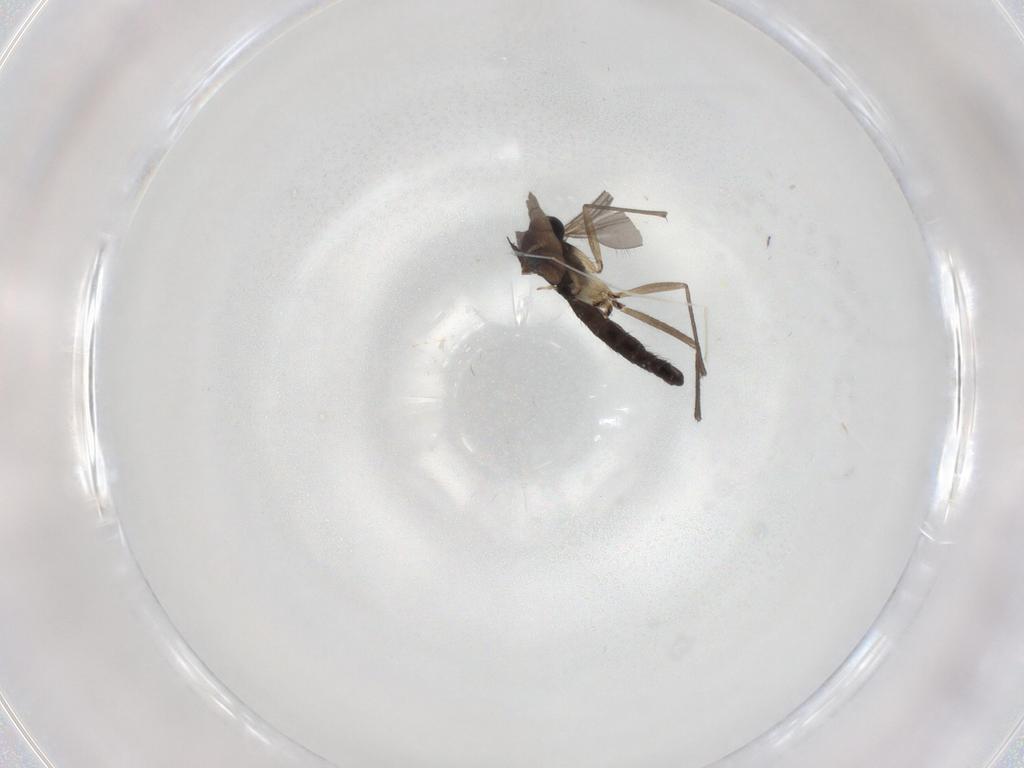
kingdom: Animalia
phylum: Arthropoda
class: Insecta
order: Diptera
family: Sciaridae
